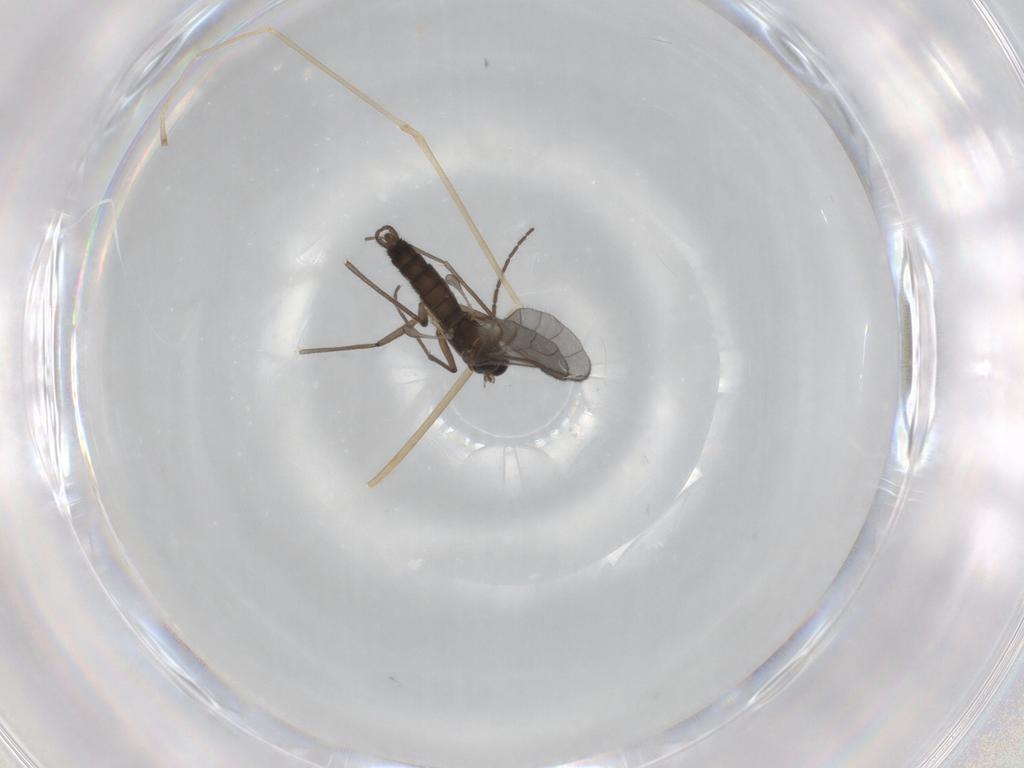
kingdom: Animalia
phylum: Arthropoda
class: Insecta
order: Diptera
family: Sciaridae
